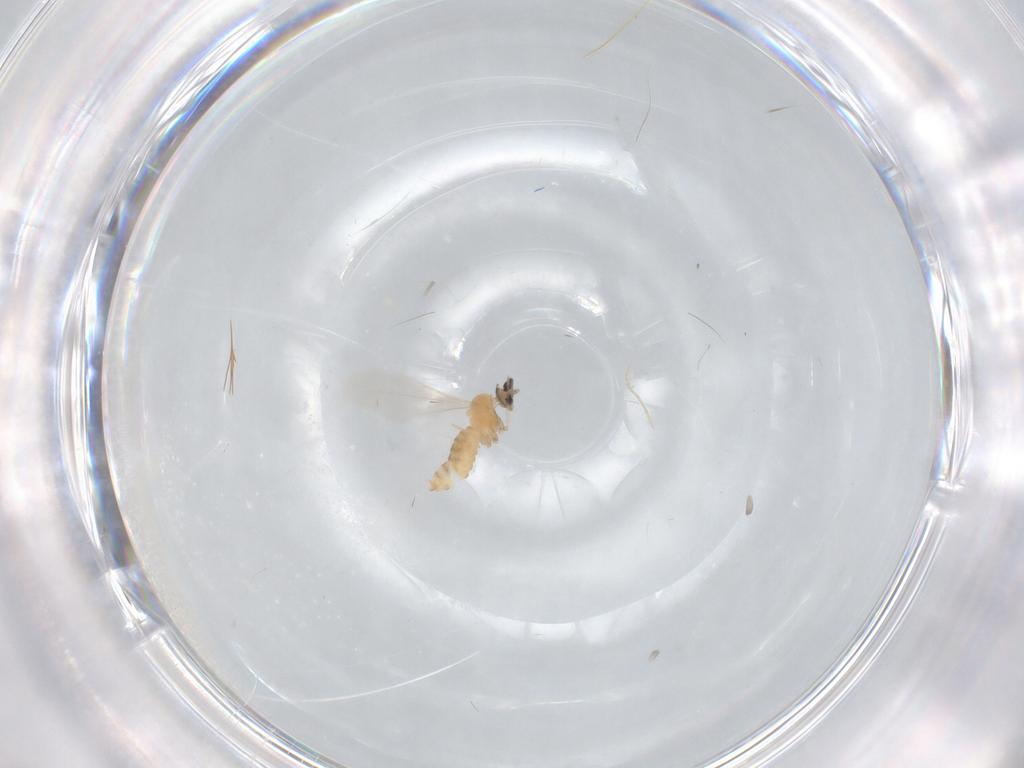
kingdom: Animalia
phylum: Arthropoda
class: Insecta
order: Diptera
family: Cecidomyiidae
